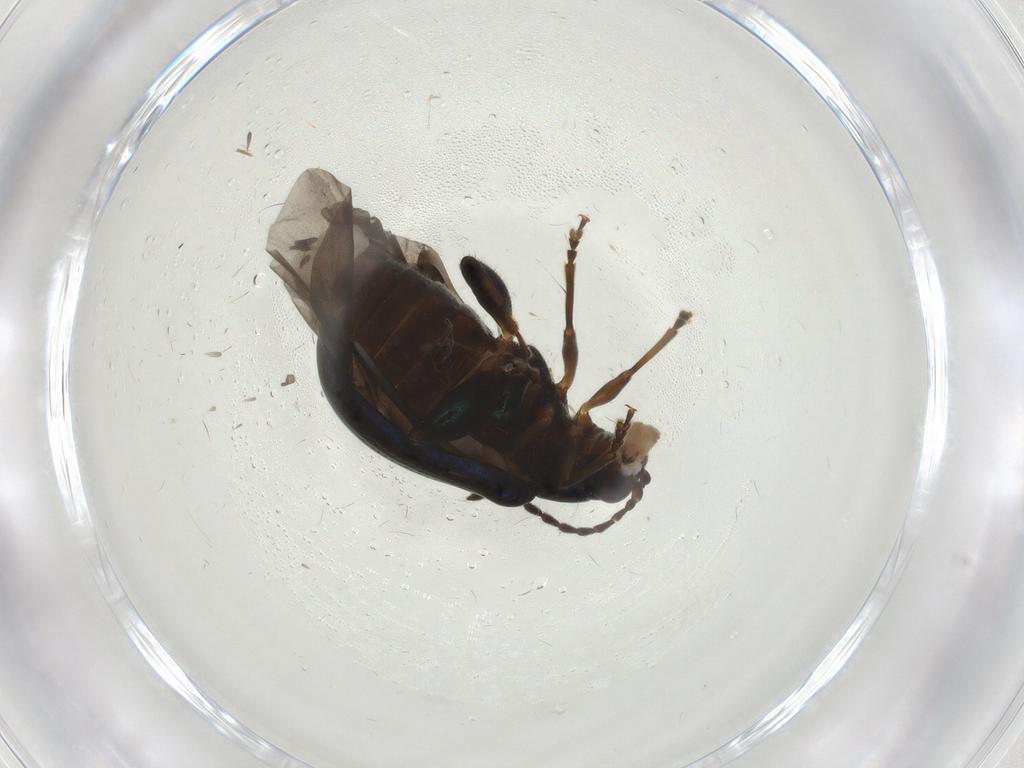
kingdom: Animalia
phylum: Arthropoda
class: Insecta
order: Coleoptera
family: Chrysomelidae
